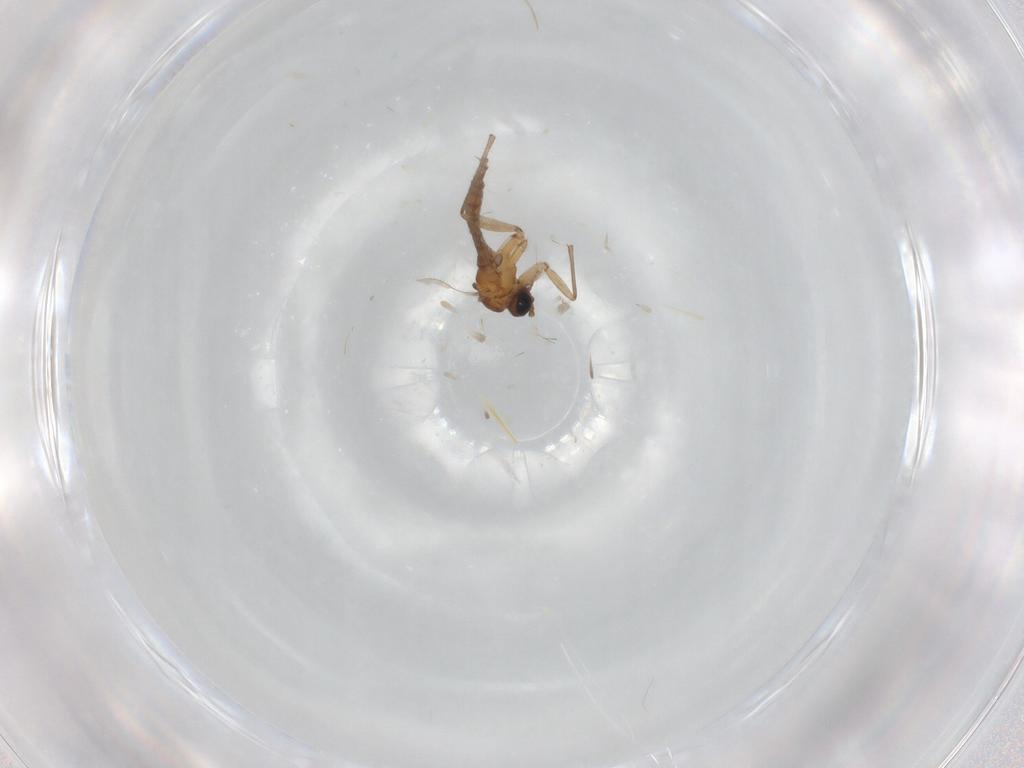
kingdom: Animalia
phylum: Arthropoda
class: Insecta
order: Diptera
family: Sciaridae
